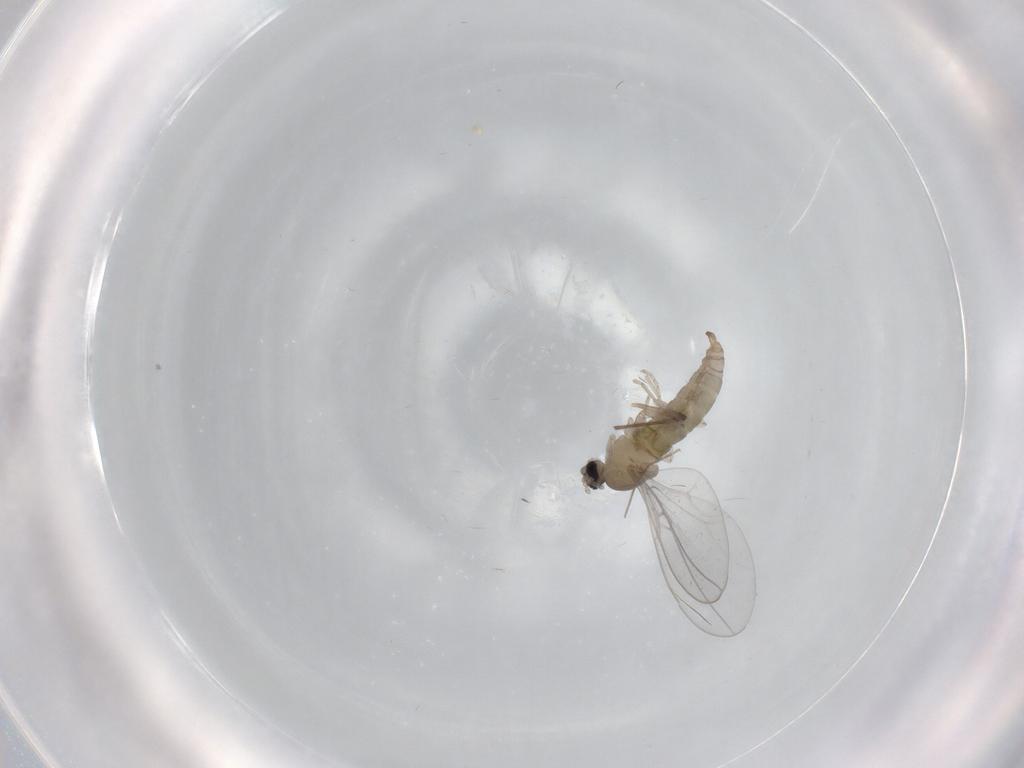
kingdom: Animalia
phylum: Arthropoda
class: Insecta
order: Diptera
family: Cecidomyiidae
